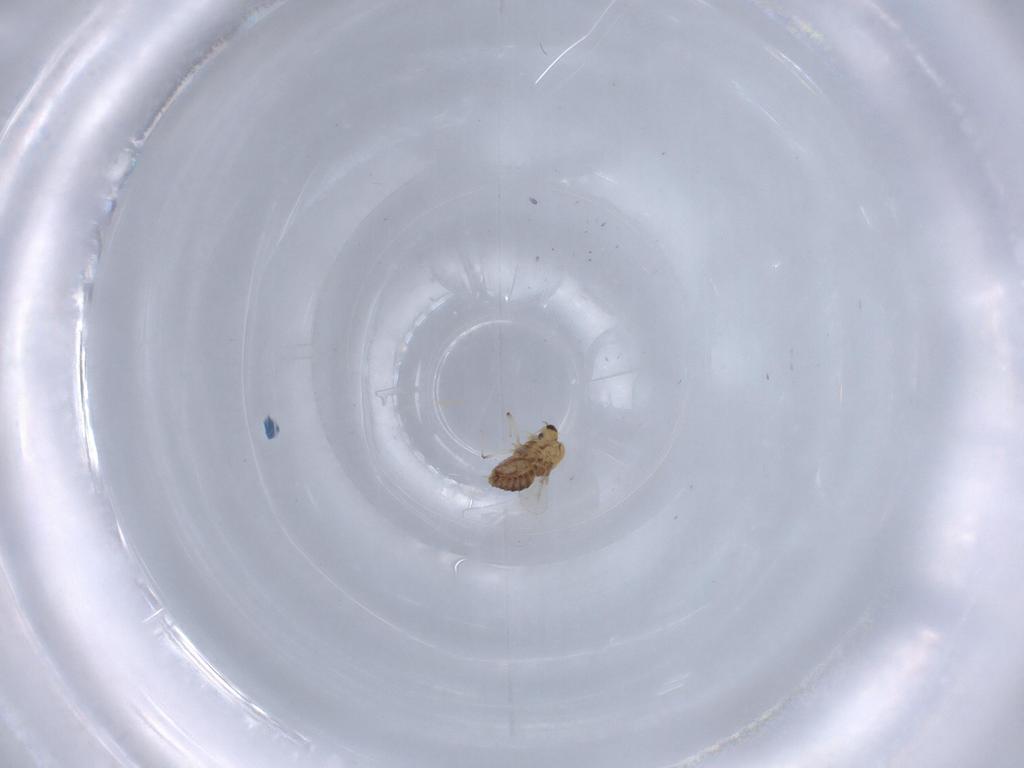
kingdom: Animalia
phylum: Arthropoda
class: Insecta
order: Diptera
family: Chironomidae
